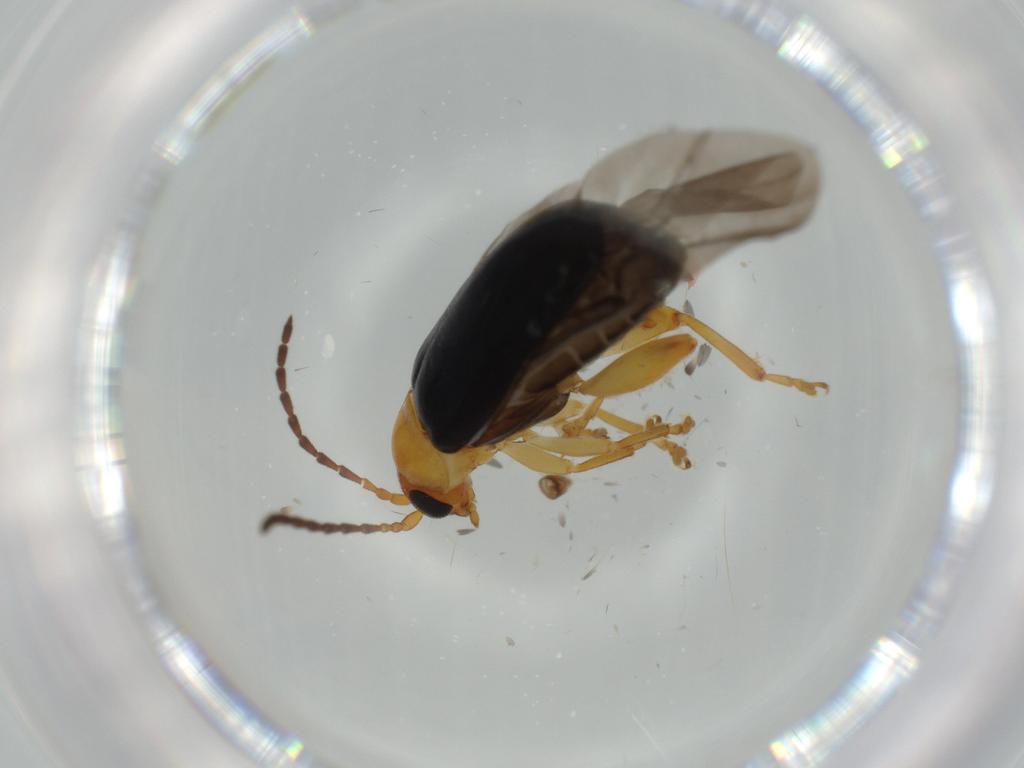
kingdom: Animalia
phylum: Arthropoda
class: Insecta
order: Coleoptera
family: Chrysomelidae
